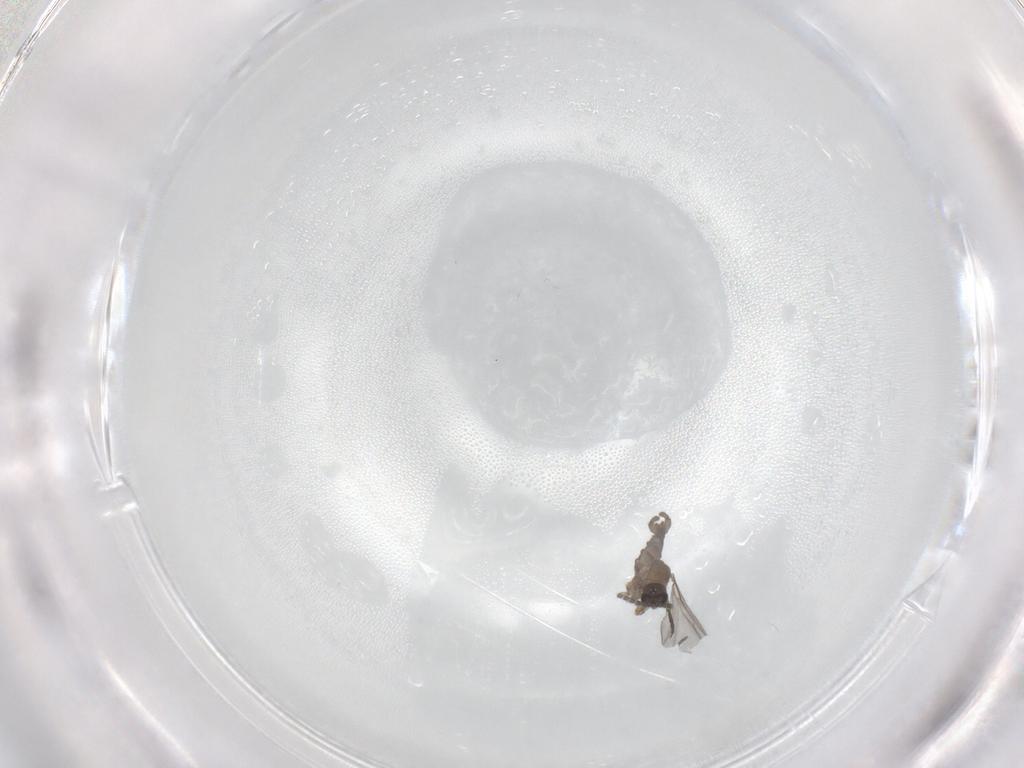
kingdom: Animalia
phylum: Arthropoda
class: Insecta
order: Diptera
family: Sciaridae
